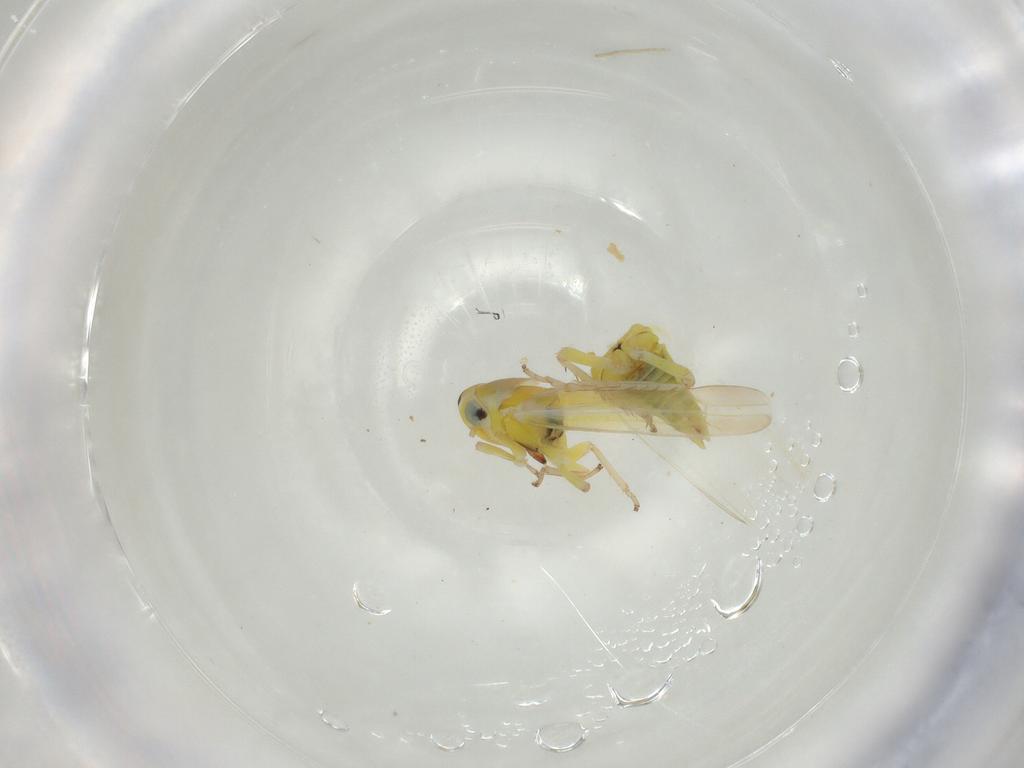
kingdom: Animalia
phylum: Arthropoda
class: Insecta
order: Hemiptera
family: Cicadellidae
